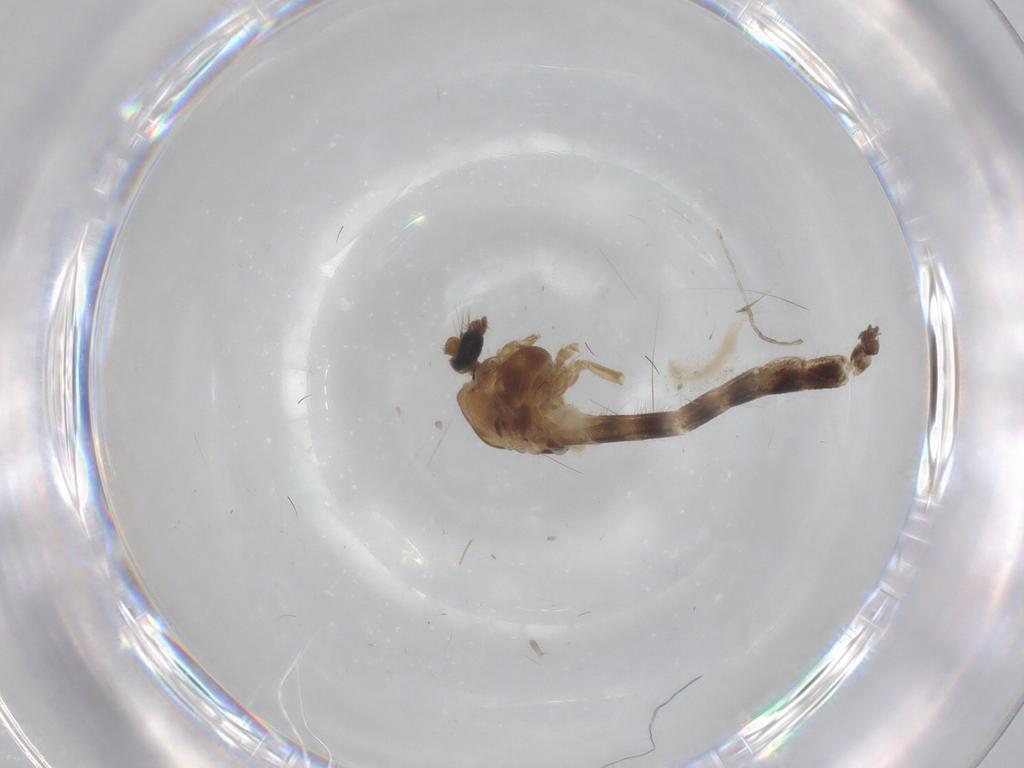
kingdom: Animalia
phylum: Arthropoda
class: Insecta
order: Diptera
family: Chironomidae
